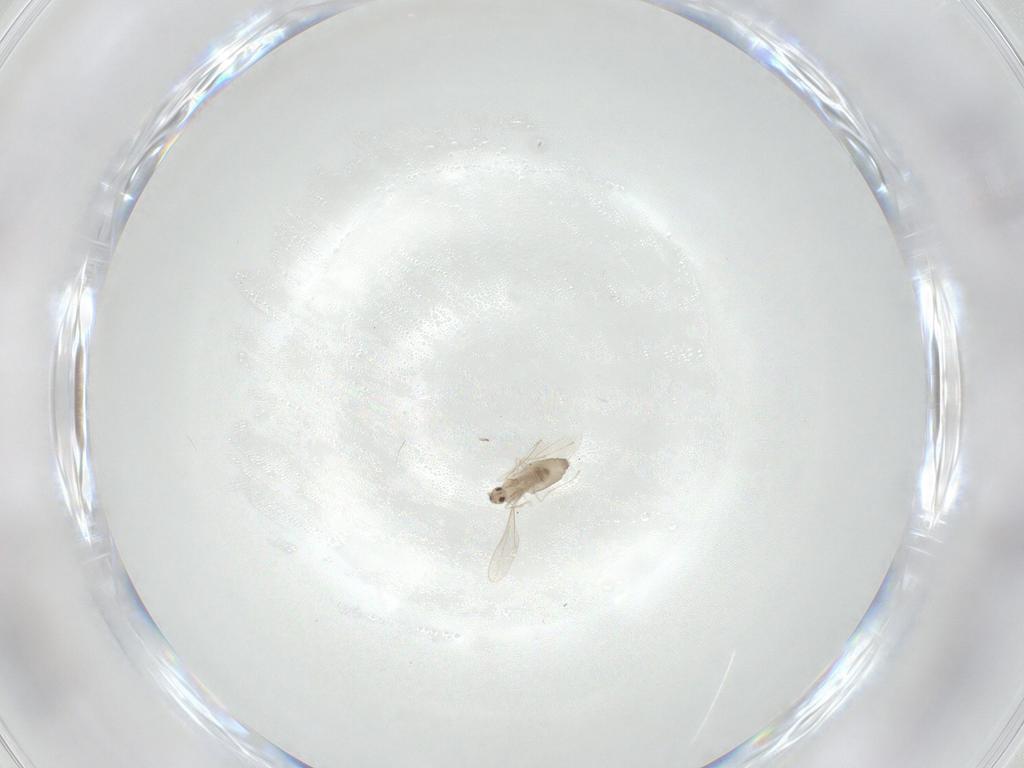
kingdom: Animalia
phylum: Arthropoda
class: Insecta
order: Diptera
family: Cecidomyiidae
